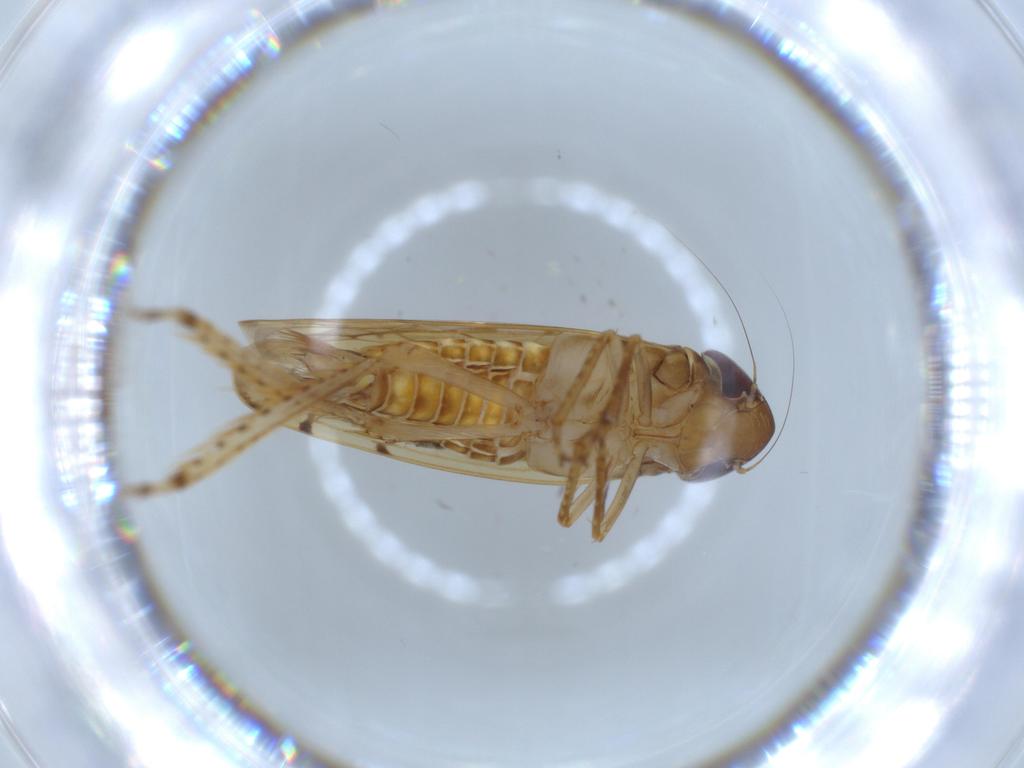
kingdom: Animalia
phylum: Arthropoda
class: Insecta
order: Hemiptera
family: Cicadellidae
